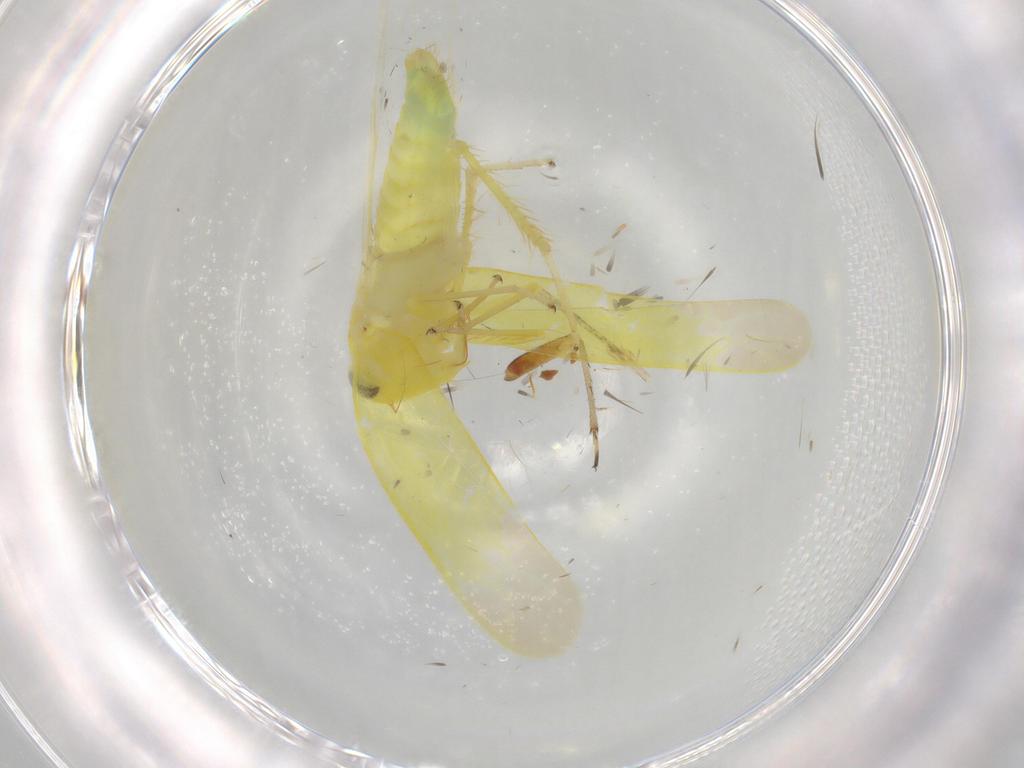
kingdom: Animalia
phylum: Arthropoda
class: Insecta
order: Hemiptera
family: Cicadellidae
